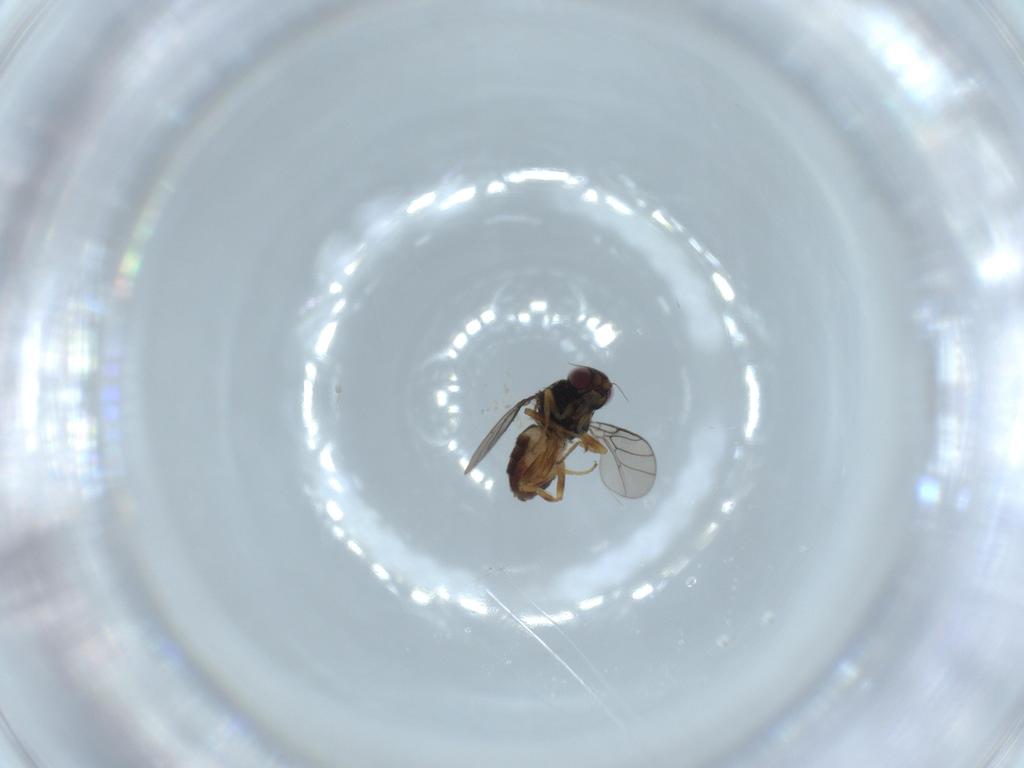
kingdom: Animalia
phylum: Arthropoda
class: Insecta
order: Diptera
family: Chloropidae
